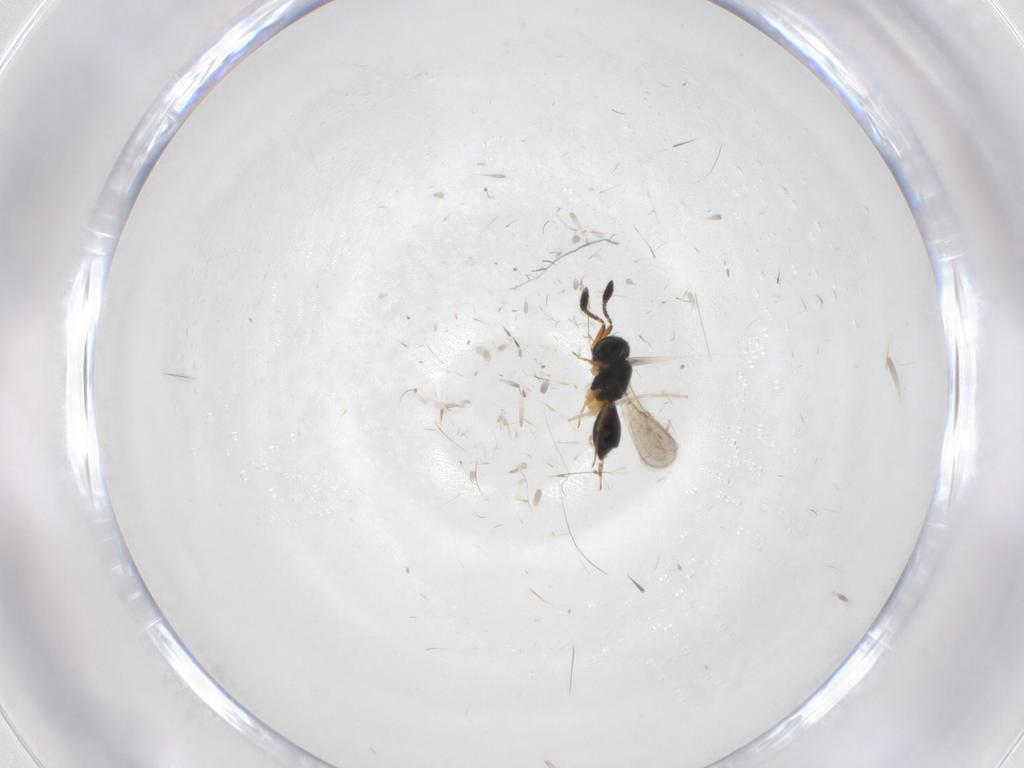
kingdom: Animalia
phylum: Arthropoda
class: Insecta
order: Hymenoptera
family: Scelionidae
